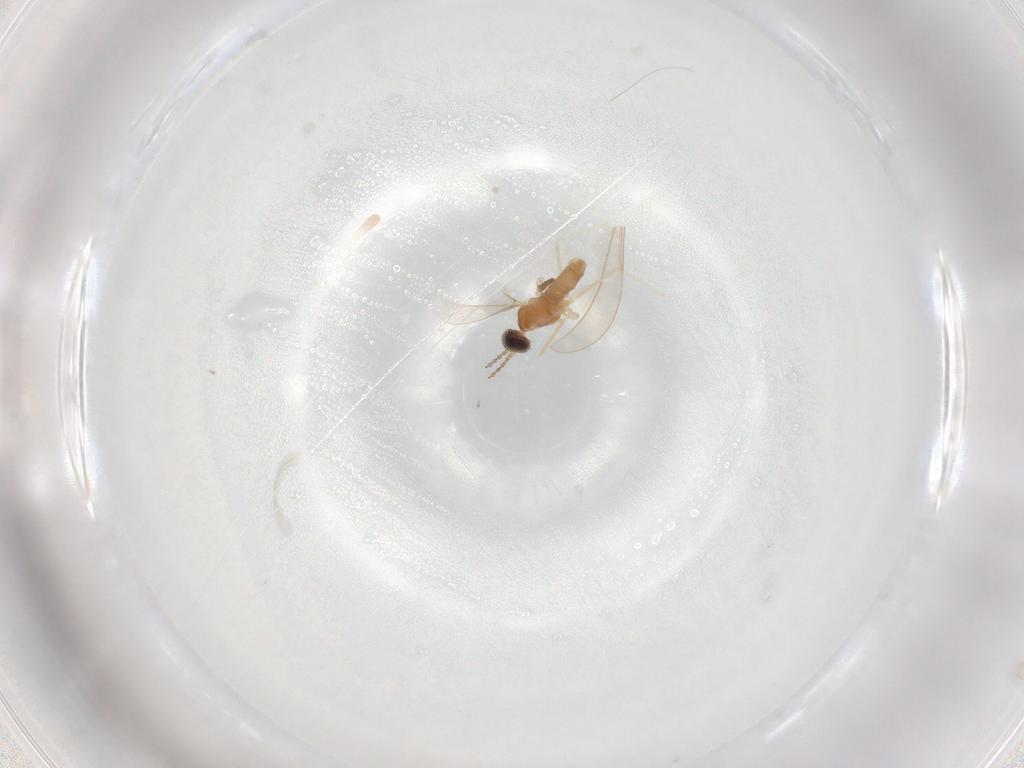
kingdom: Animalia
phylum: Arthropoda
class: Insecta
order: Diptera
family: Cecidomyiidae
